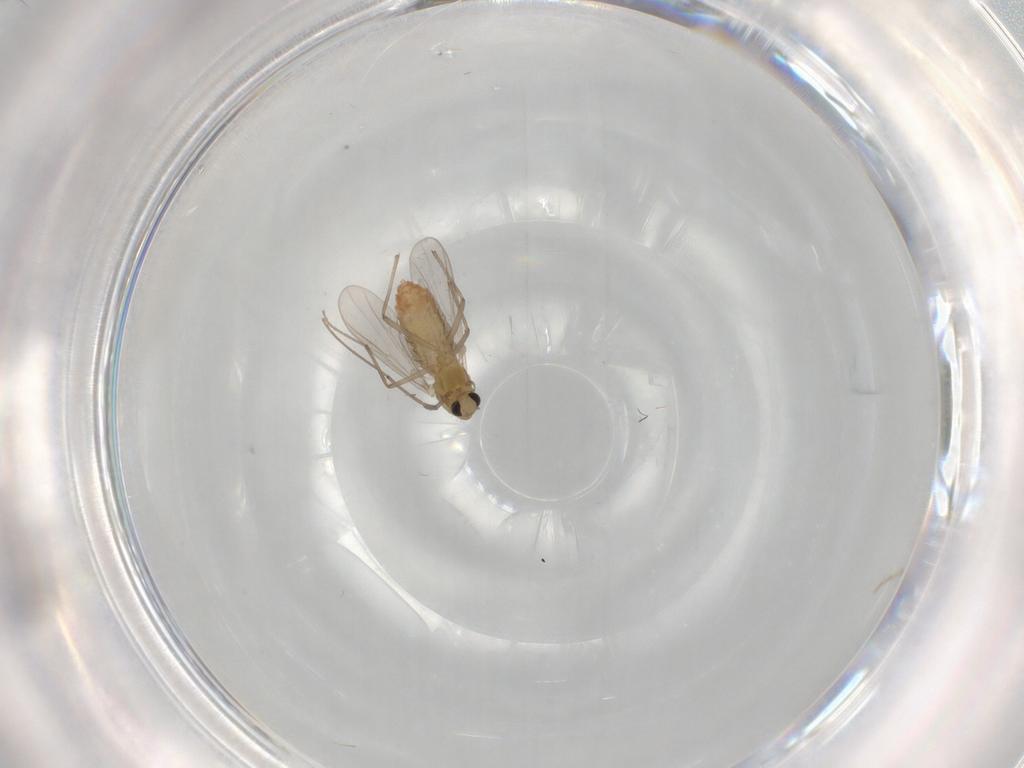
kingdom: Animalia
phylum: Arthropoda
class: Insecta
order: Diptera
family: Chironomidae
